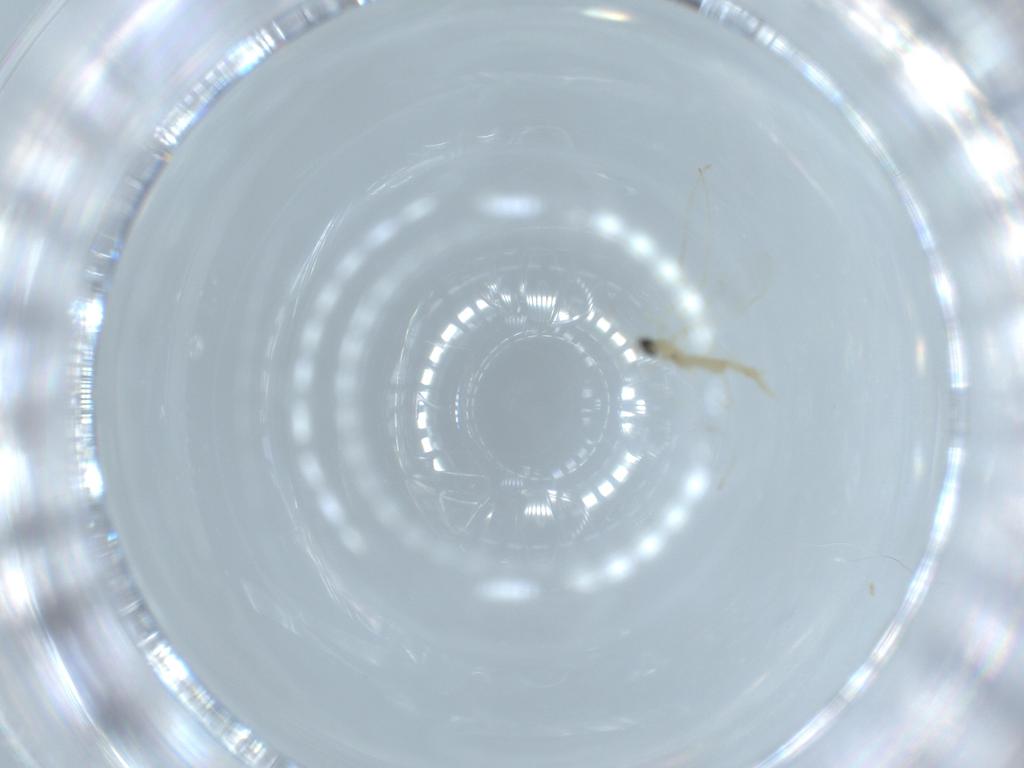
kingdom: Animalia
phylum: Arthropoda
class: Insecta
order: Diptera
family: Cecidomyiidae
